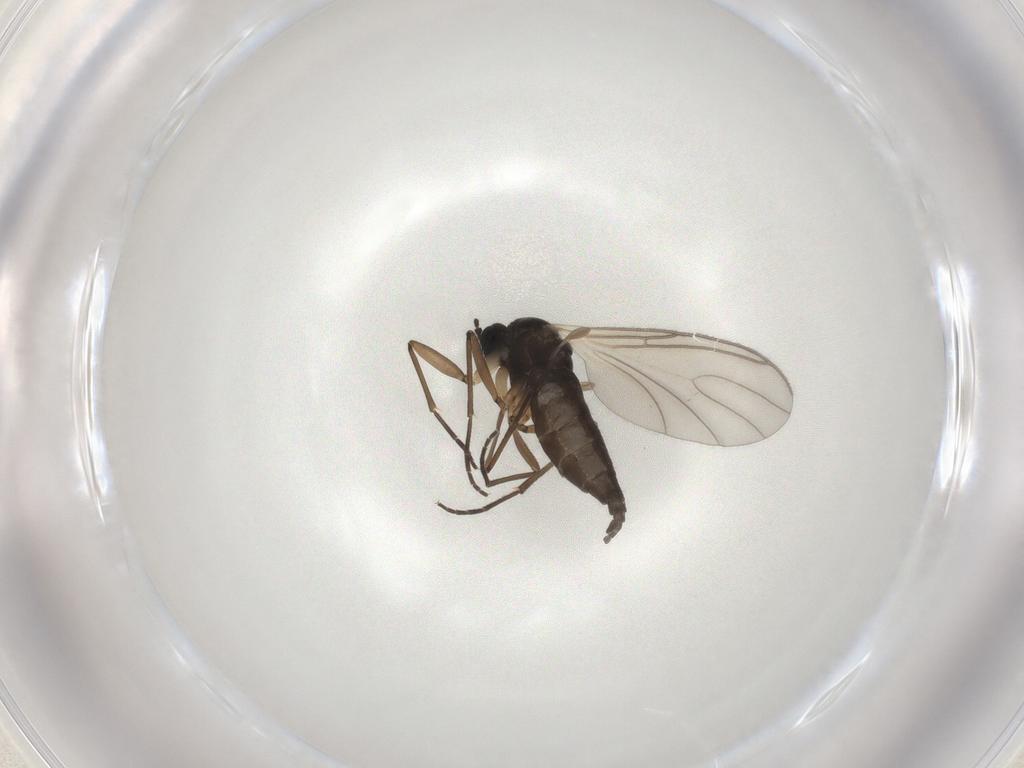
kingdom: Animalia
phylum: Arthropoda
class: Insecta
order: Diptera
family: Sciaridae
